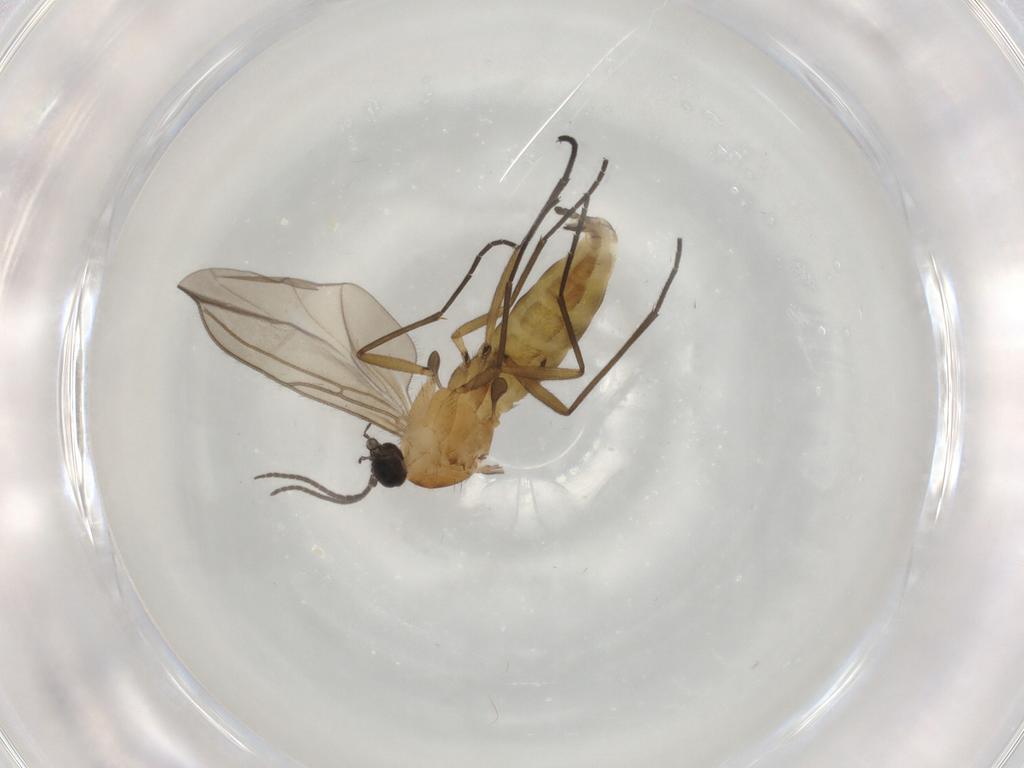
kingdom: Animalia
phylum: Arthropoda
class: Insecta
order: Diptera
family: Sciaridae
